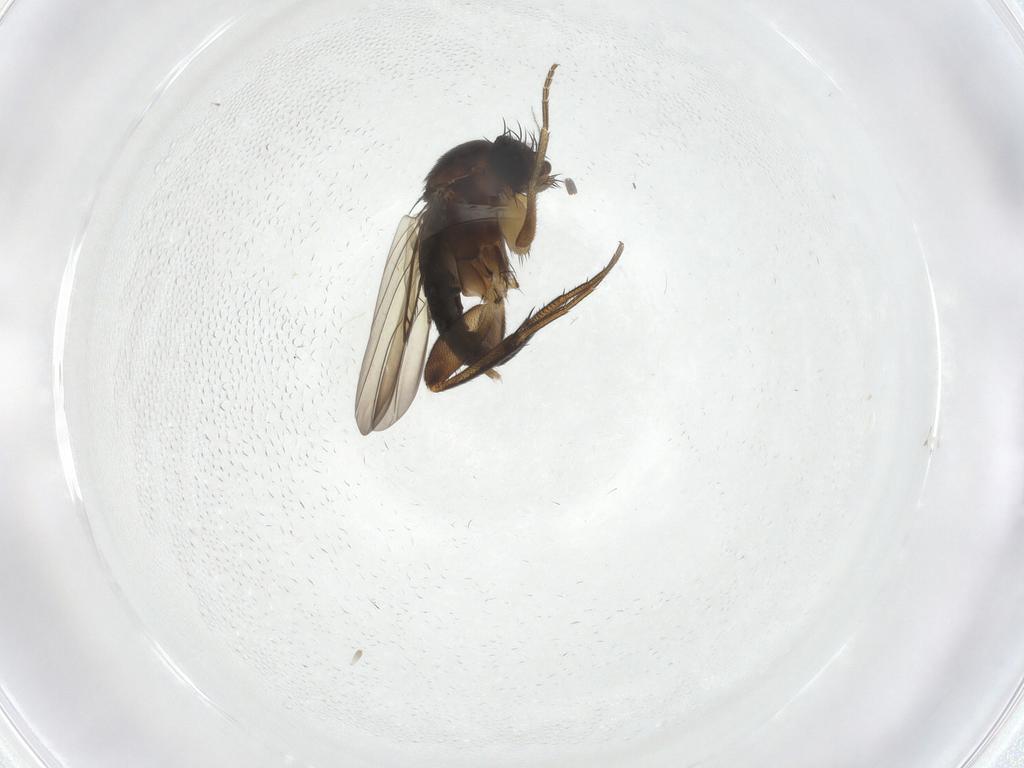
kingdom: Animalia
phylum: Arthropoda
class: Insecta
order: Diptera
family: Phoridae
